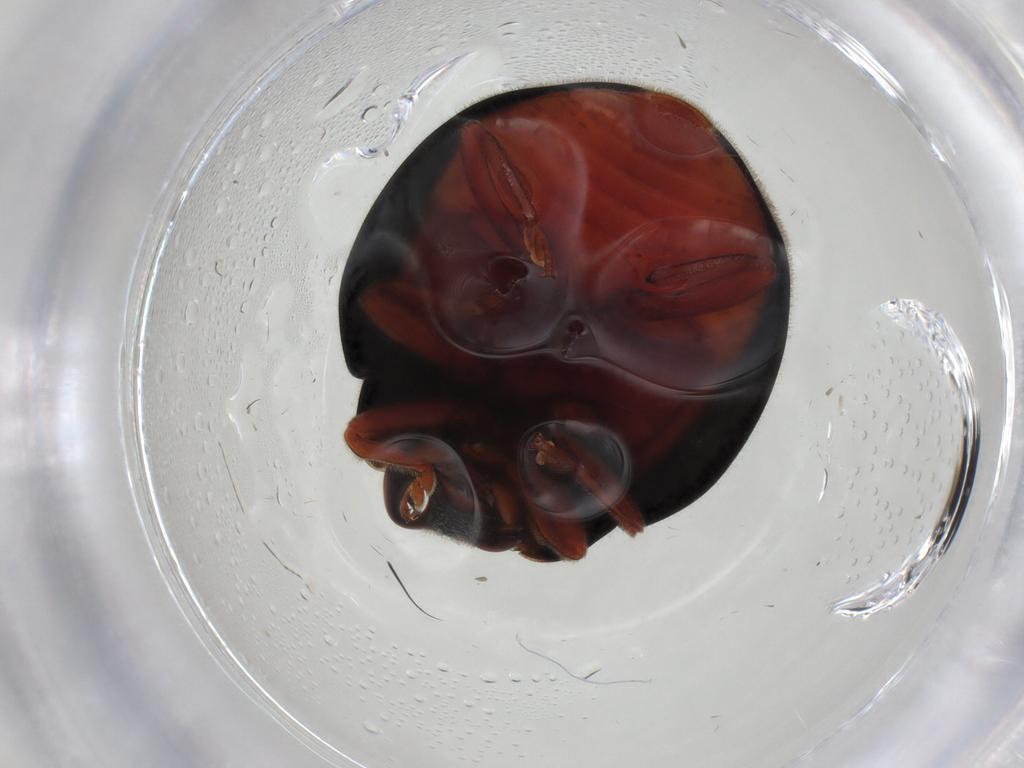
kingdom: Animalia
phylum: Arthropoda
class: Insecta
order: Coleoptera
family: Coccinellidae
